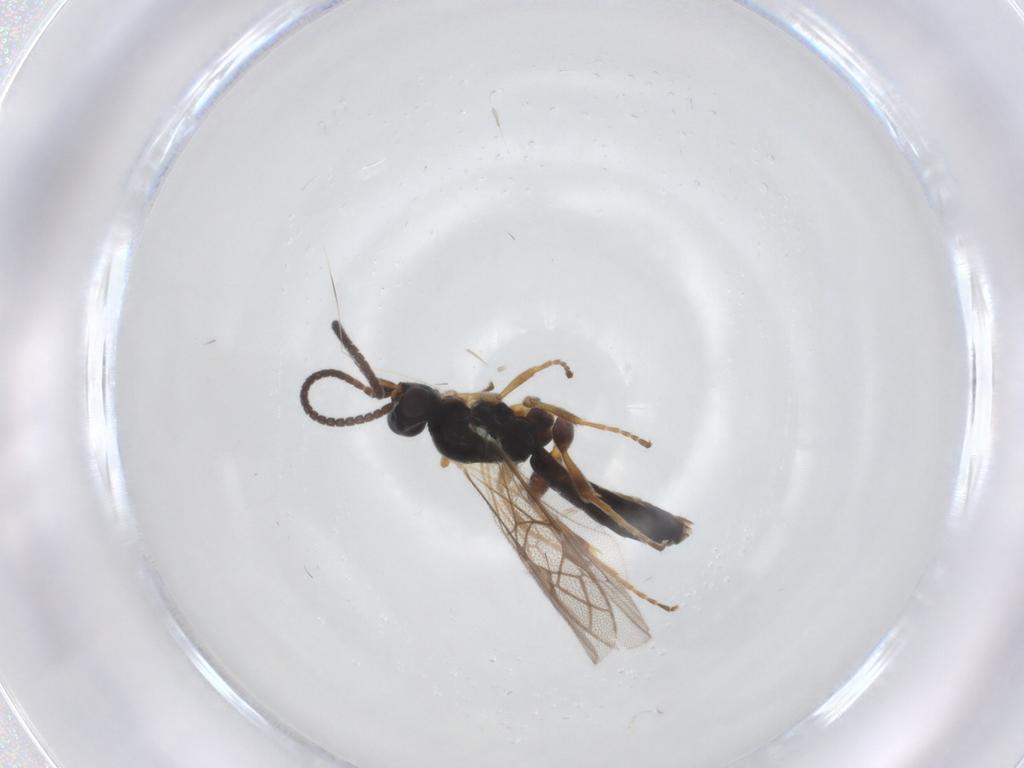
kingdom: Animalia
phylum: Arthropoda
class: Insecta
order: Hymenoptera
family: Ichneumonidae
